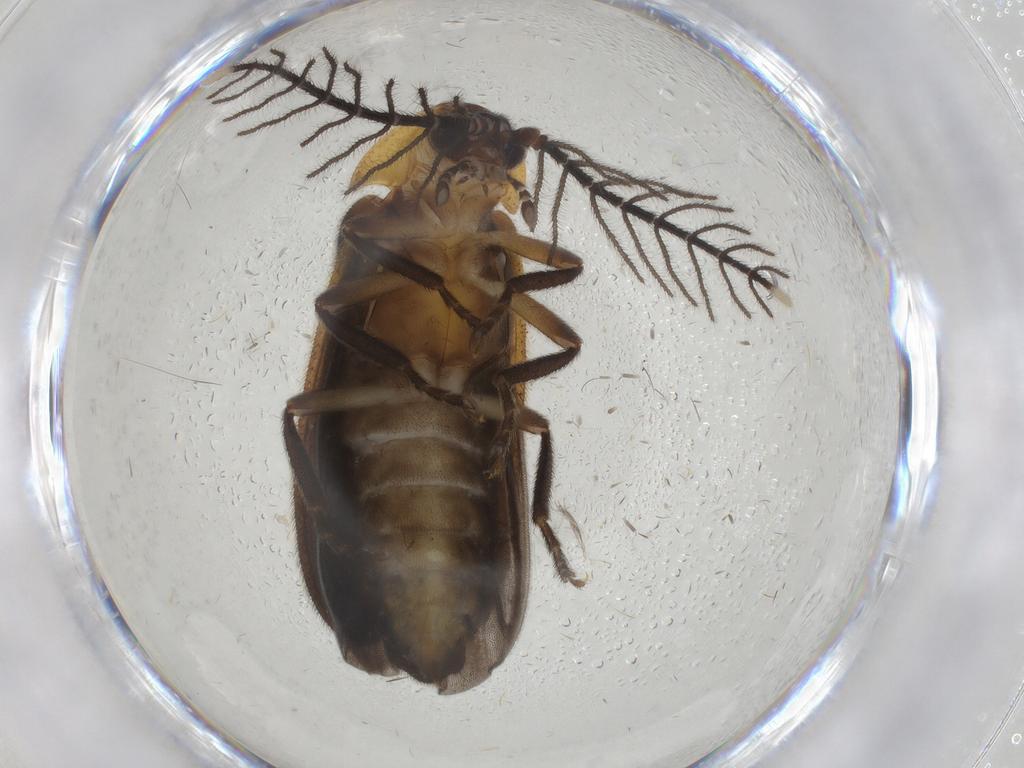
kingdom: Animalia
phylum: Arthropoda
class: Insecta
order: Coleoptera
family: Lampyridae
